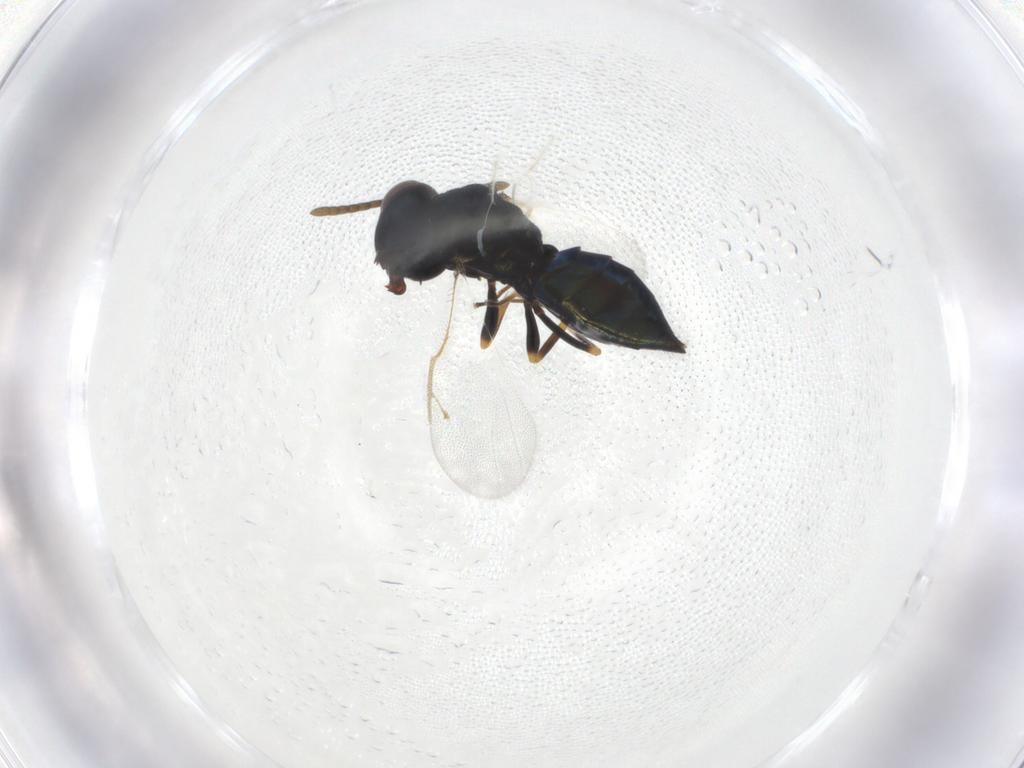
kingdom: Animalia
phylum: Arthropoda
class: Insecta
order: Hymenoptera
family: Pteromalidae
